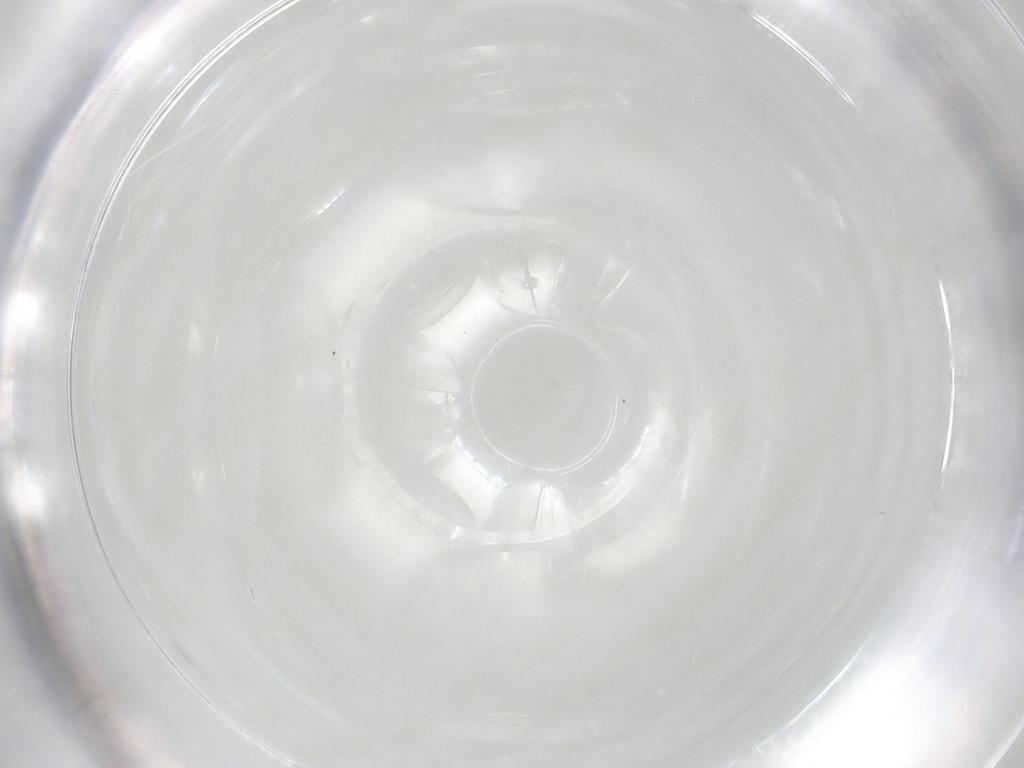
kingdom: Animalia
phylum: Arthropoda
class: Insecta
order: Hymenoptera
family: Mymaridae
